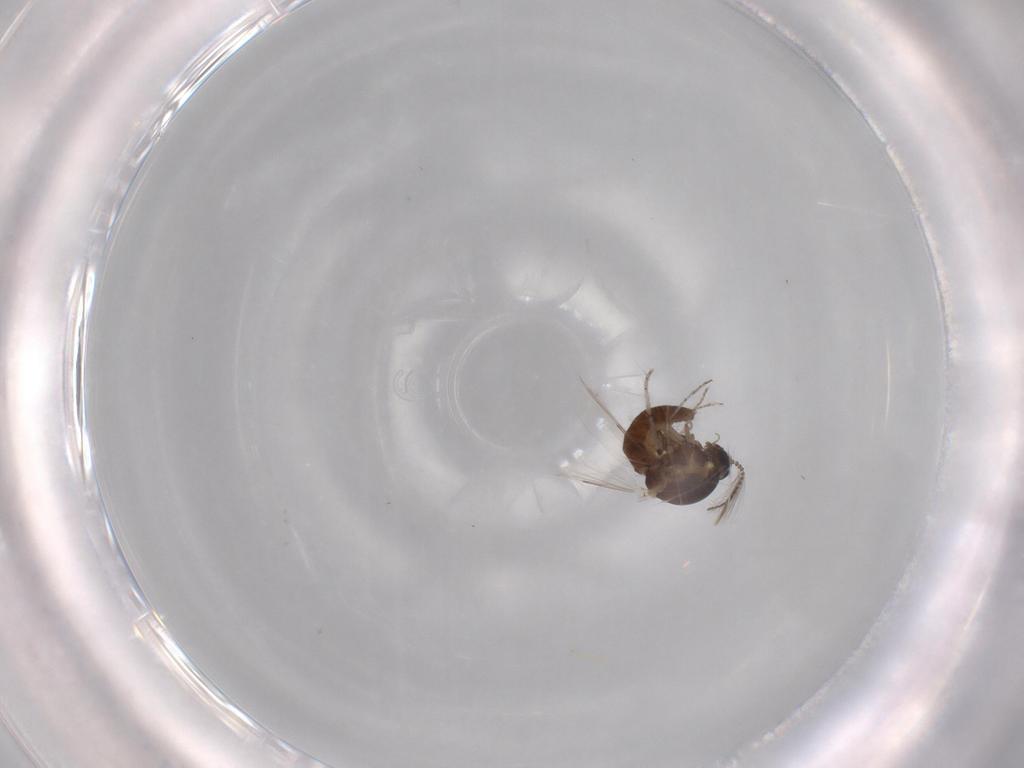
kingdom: Animalia
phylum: Arthropoda
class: Insecta
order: Diptera
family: Ceratopogonidae
